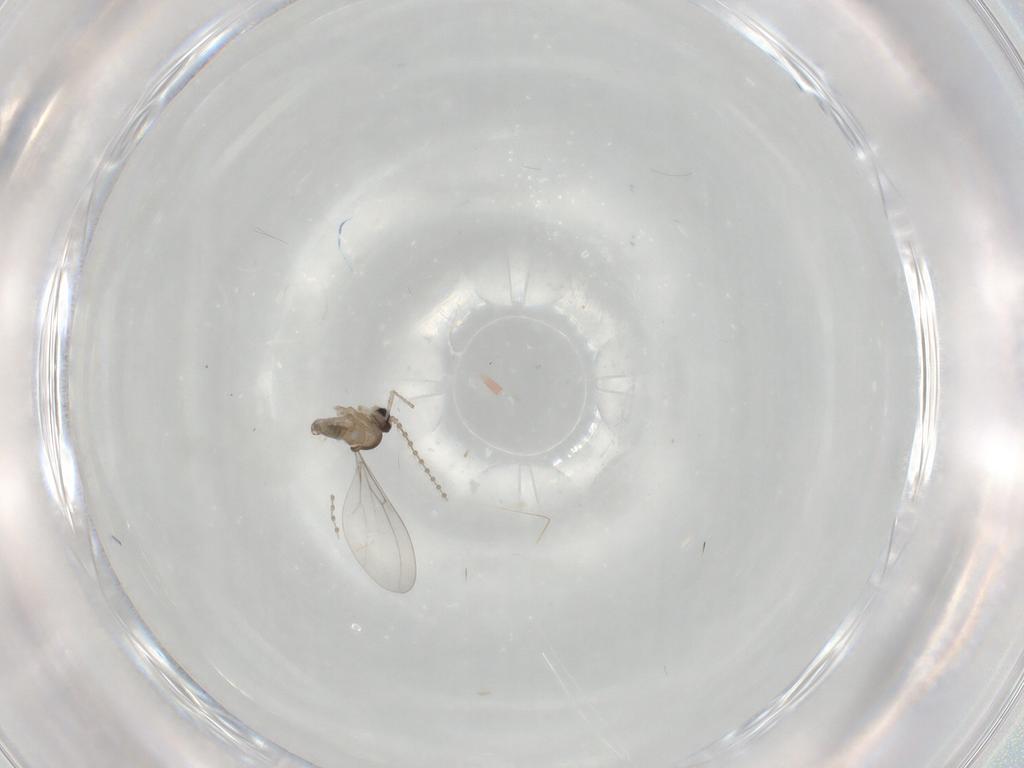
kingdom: Animalia
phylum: Arthropoda
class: Insecta
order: Diptera
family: Cecidomyiidae
